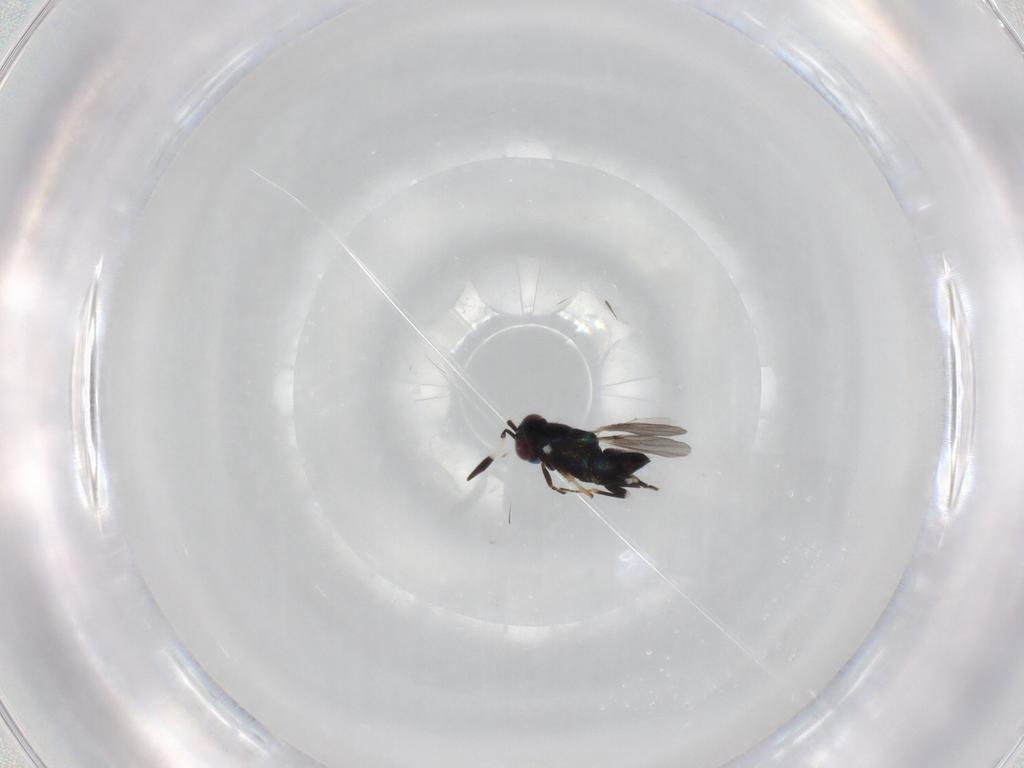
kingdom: Animalia
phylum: Arthropoda
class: Insecta
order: Hymenoptera
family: Encyrtidae
